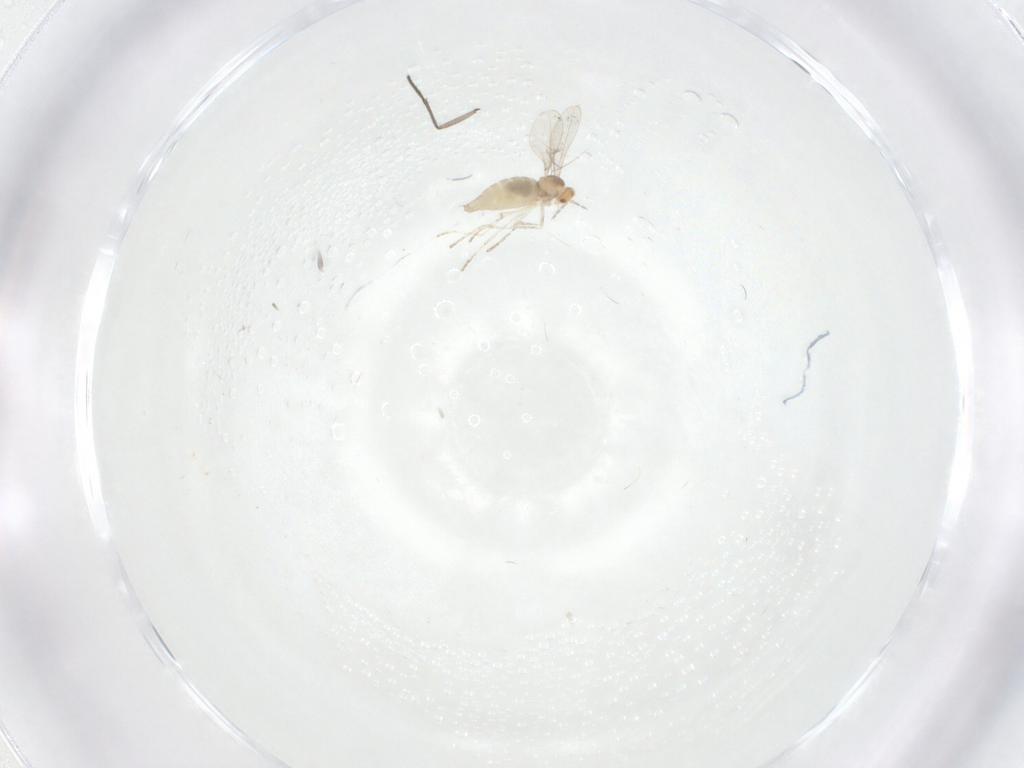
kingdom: Animalia
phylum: Arthropoda
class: Insecta
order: Diptera
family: Sciaridae
